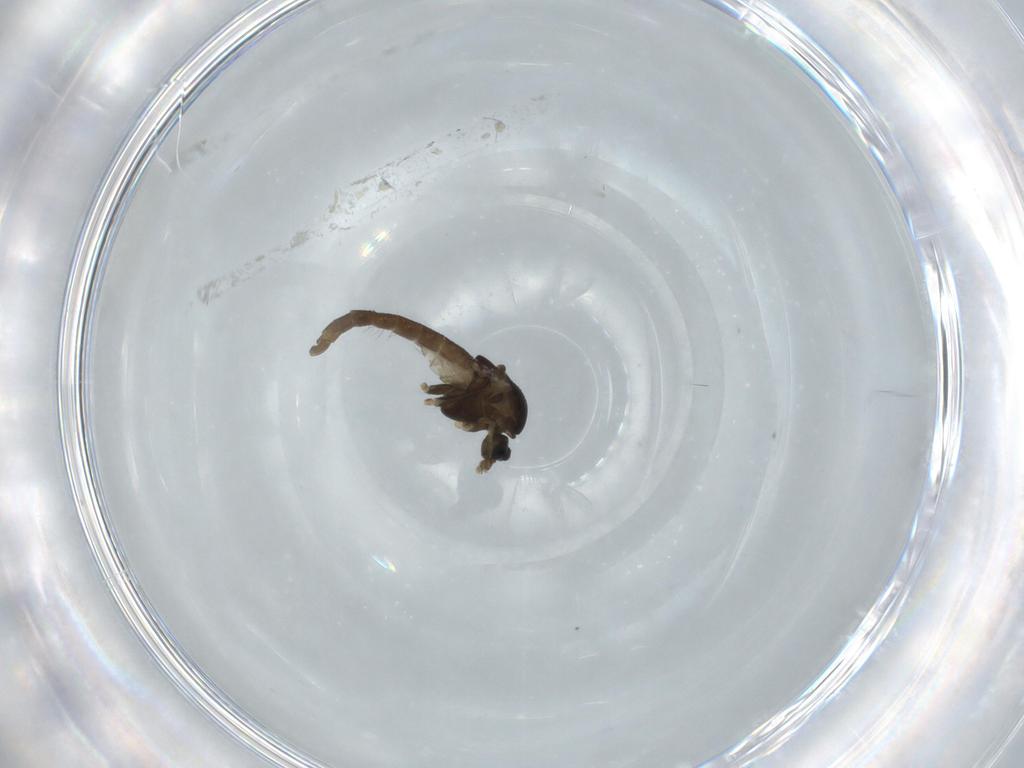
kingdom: Animalia
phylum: Arthropoda
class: Insecta
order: Diptera
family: Chironomidae
